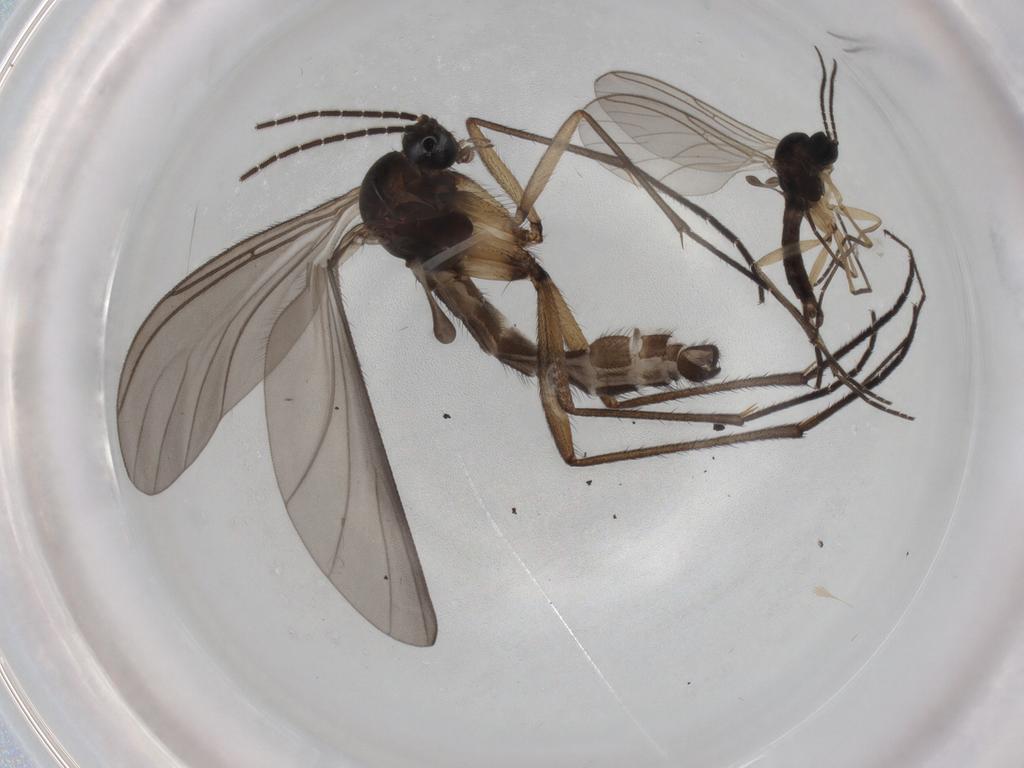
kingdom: Animalia
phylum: Arthropoda
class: Insecta
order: Diptera
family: Sciaridae
